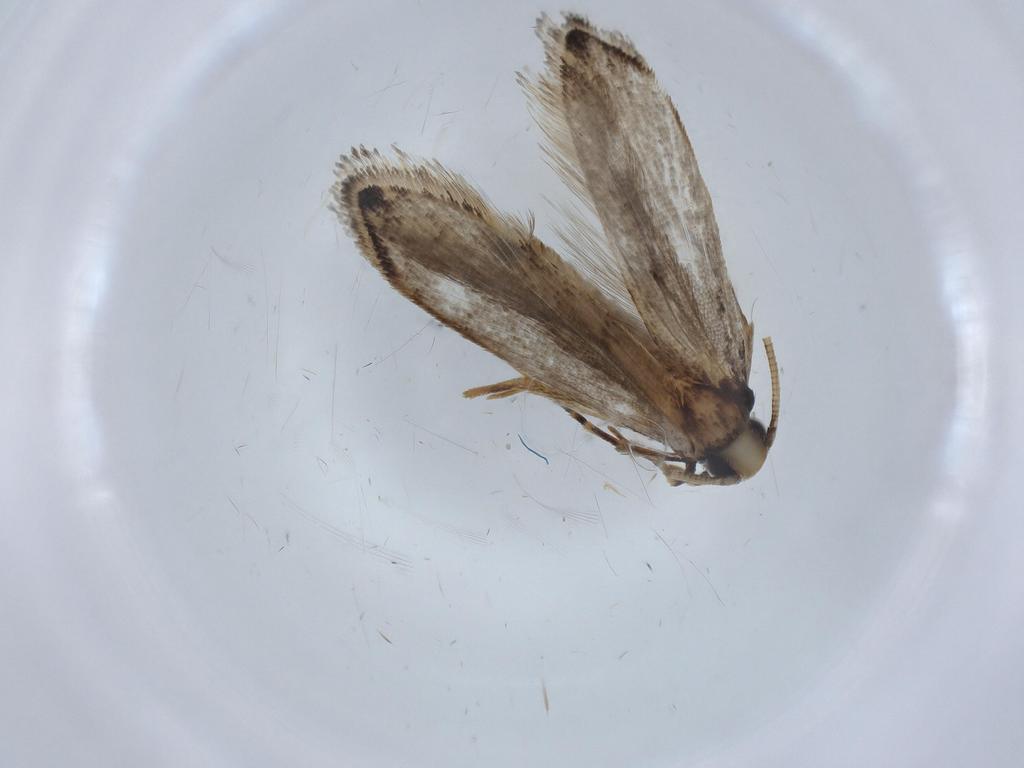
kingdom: Animalia
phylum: Arthropoda
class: Insecta
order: Lepidoptera
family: Tineidae
